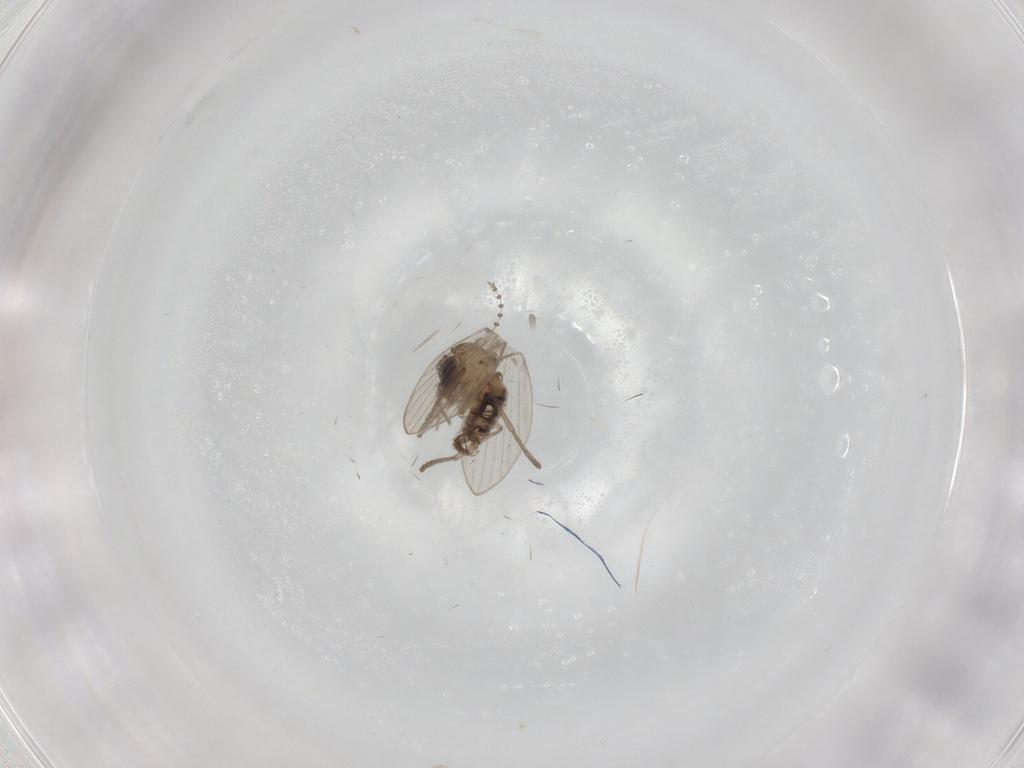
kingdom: Animalia
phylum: Arthropoda
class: Insecta
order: Diptera
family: Psychodidae
